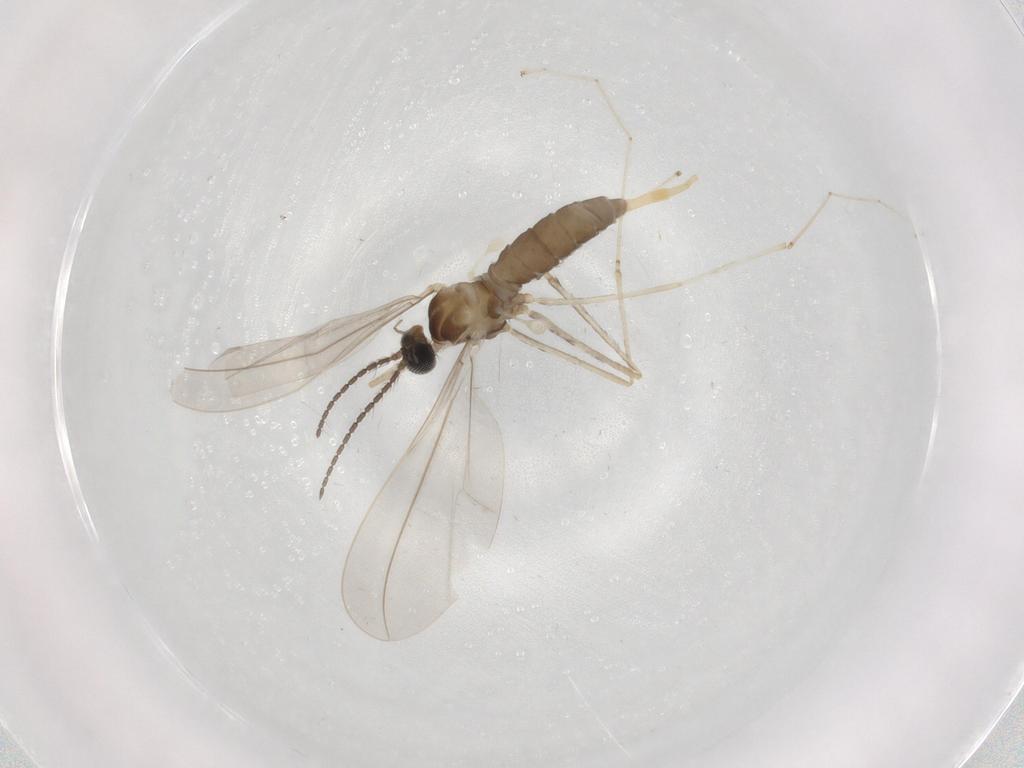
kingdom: Animalia
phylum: Arthropoda
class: Insecta
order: Diptera
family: Cecidomyiidae
